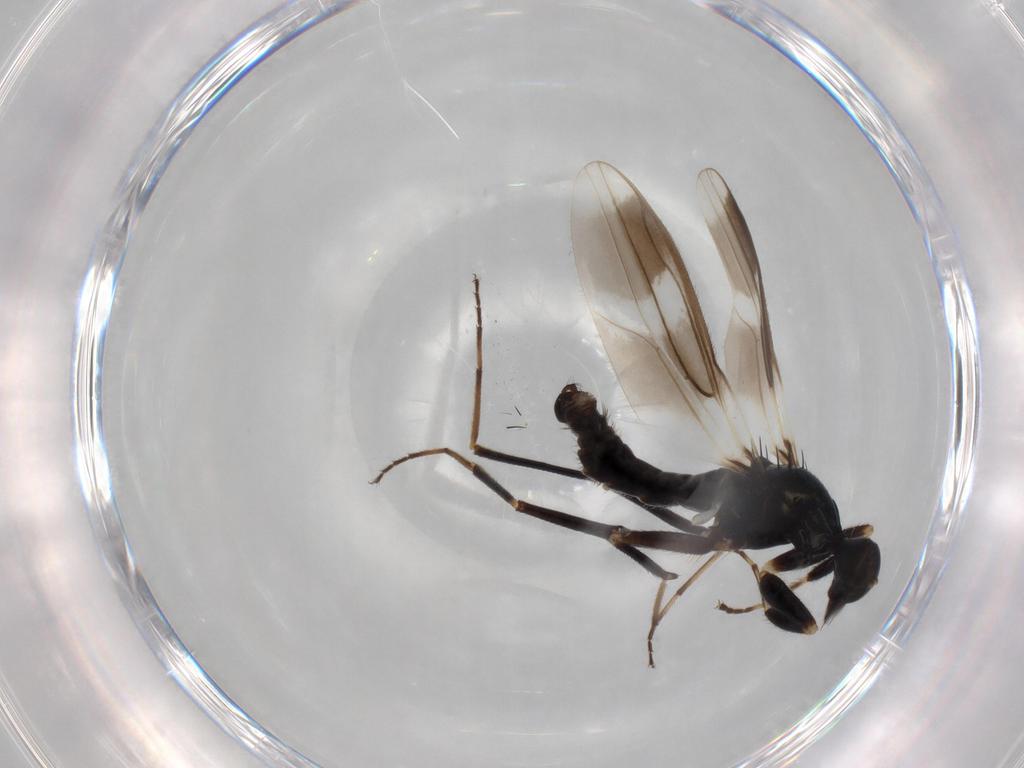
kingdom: Animalia
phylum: Arthropoda
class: Insecta
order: Diptera
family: Hybotidae
